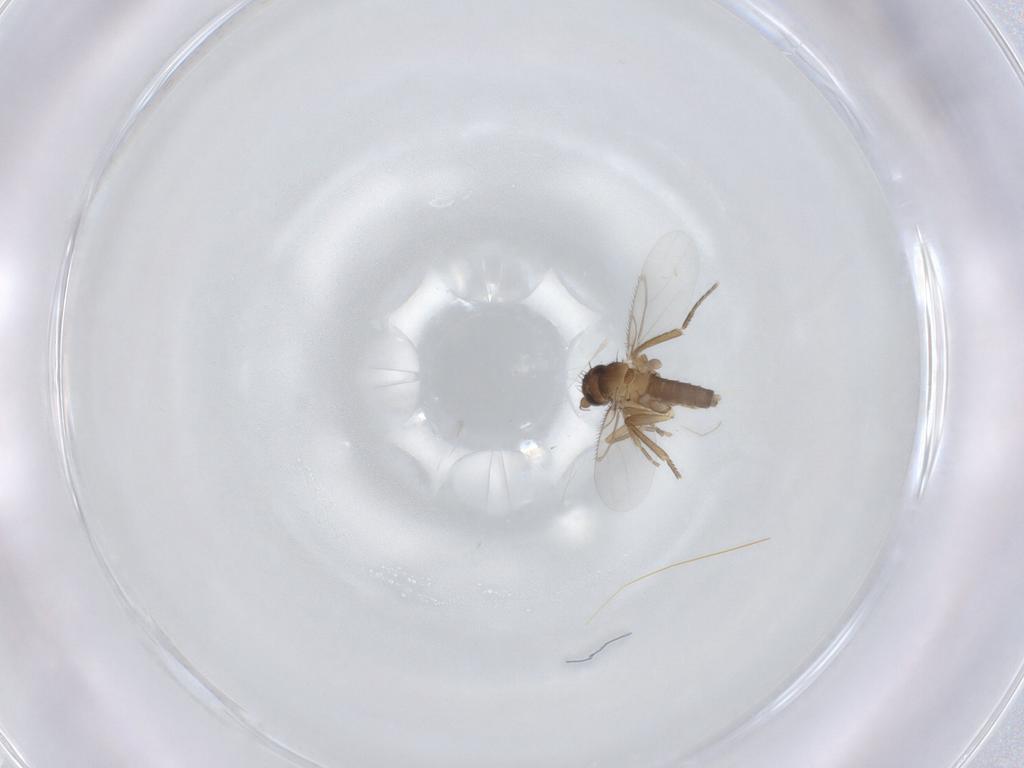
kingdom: Animalia
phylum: Arthropoda
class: Insecta
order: Diptera
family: Phoridae
